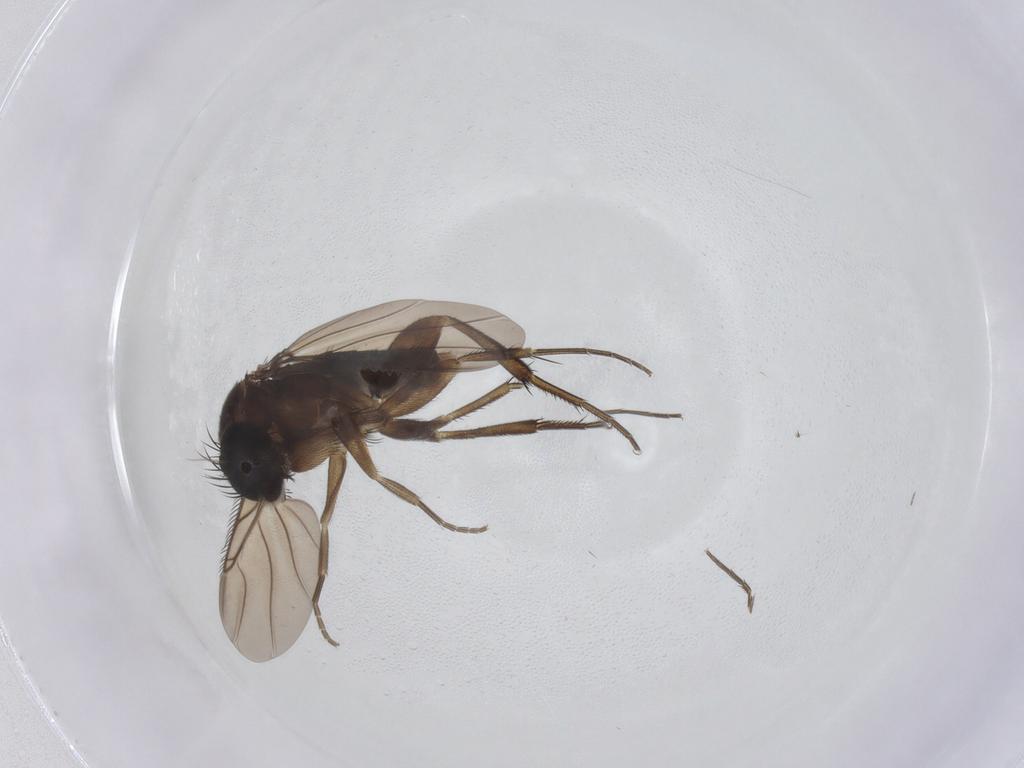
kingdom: Animalia
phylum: Arthropoda
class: Insecta
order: Diptera
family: Phoridae
